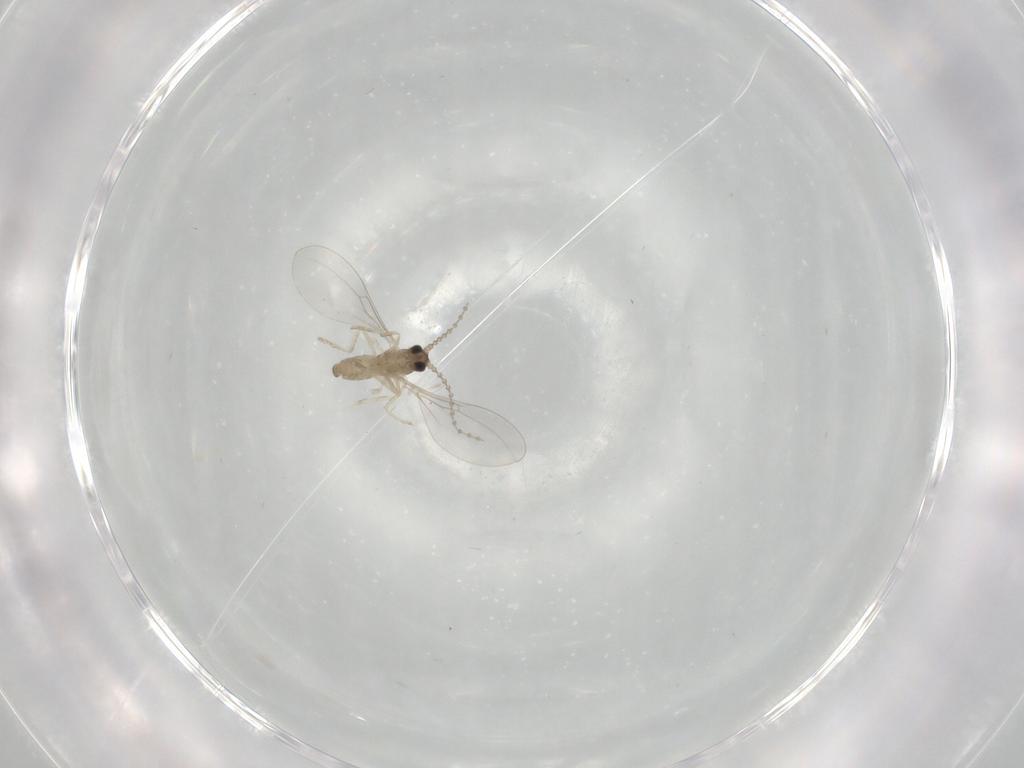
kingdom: Animalia
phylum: Arthropoda
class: Insecta
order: Diptera
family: Cecidomyiidae
